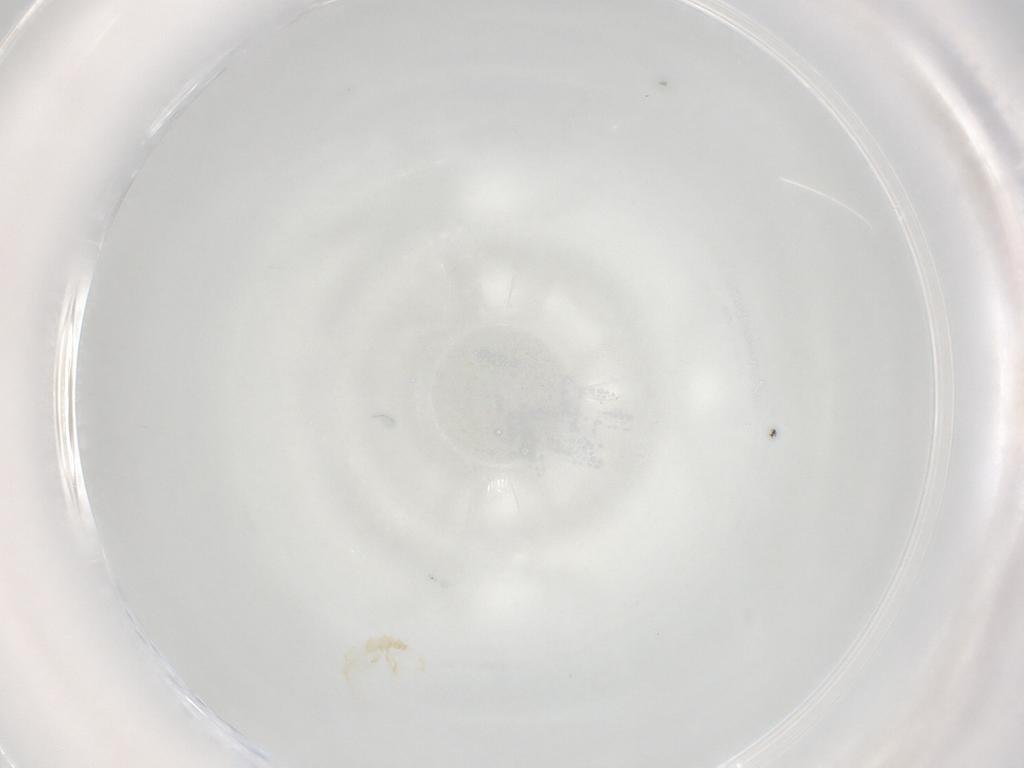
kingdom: Animalia
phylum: Arthropoda
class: Arachnida
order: Trombidiformes
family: Erythraeidae
